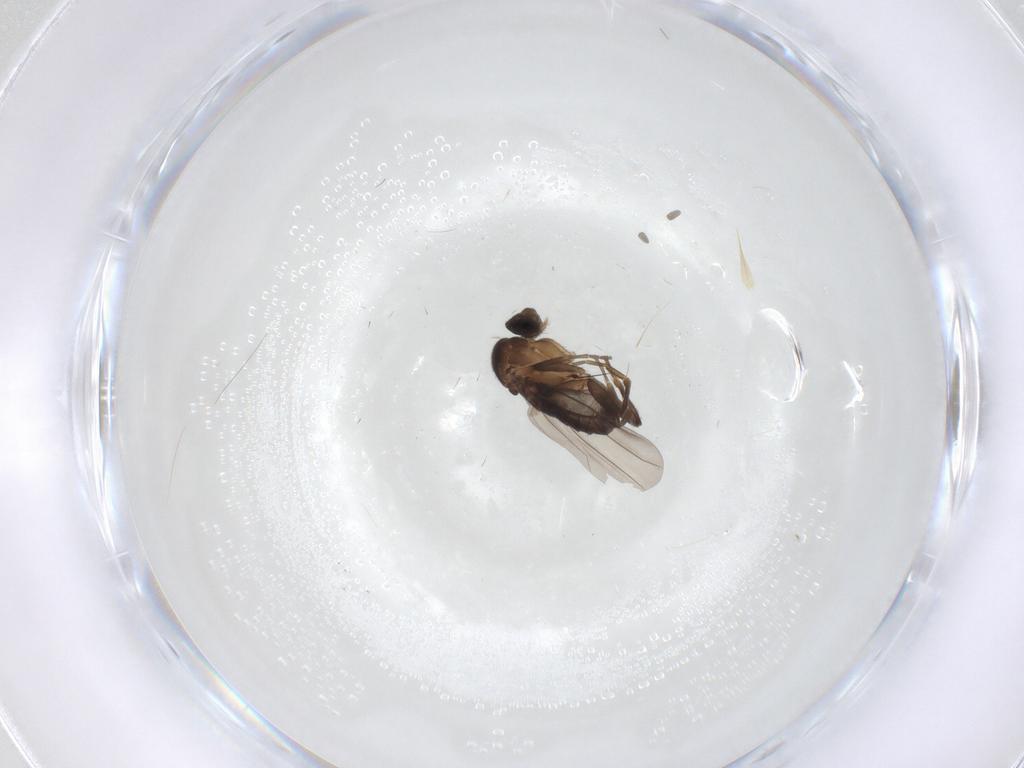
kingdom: Animalia
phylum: Arthropoda
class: Insecta
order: Diptera
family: Phoridae
